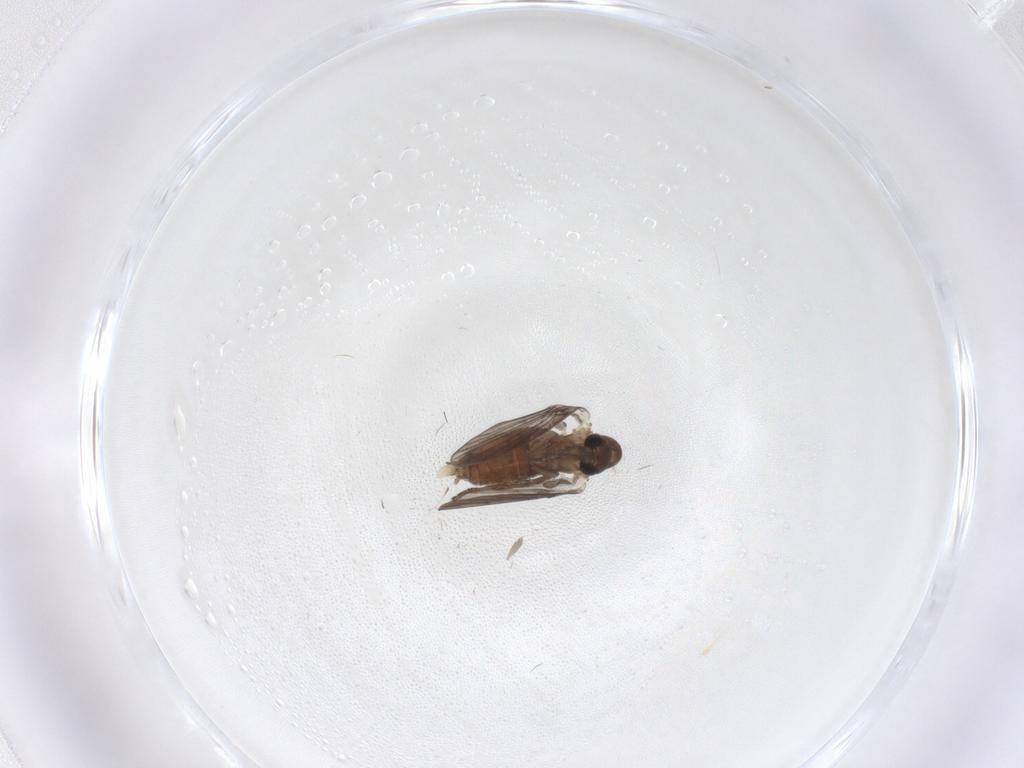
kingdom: Animalia
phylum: Arthropoda
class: Insecta
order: Diptera
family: Psychodidae
